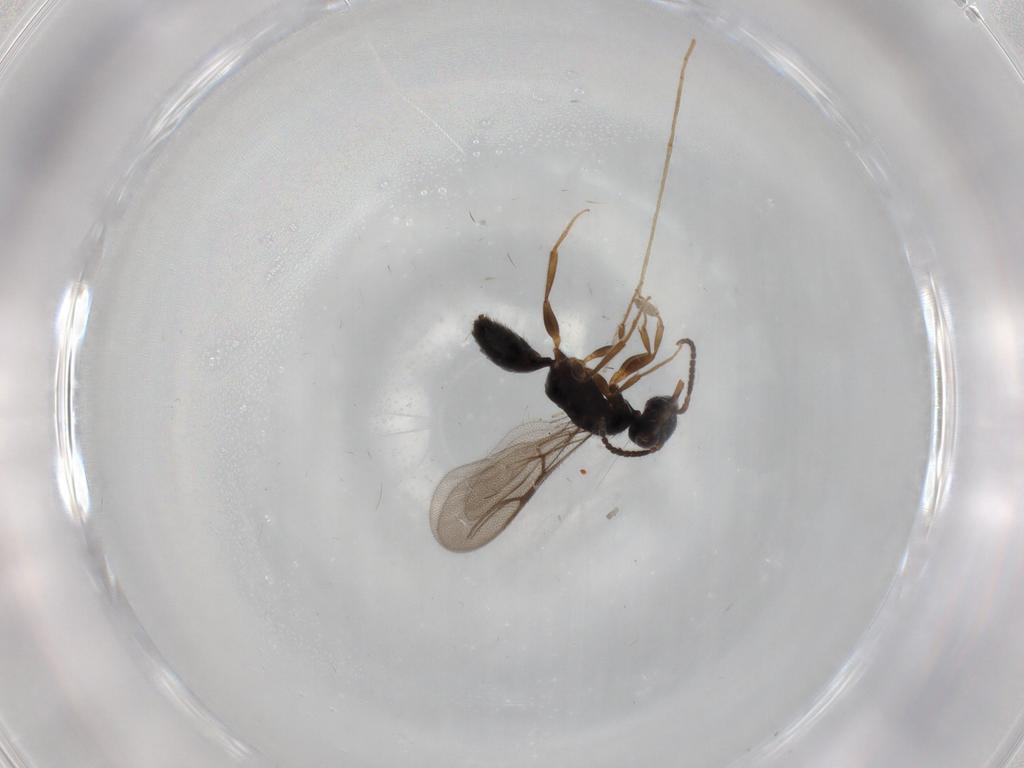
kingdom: Animalia
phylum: Arthropoda
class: Insecta
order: Hymenoptera
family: Bethylidae
